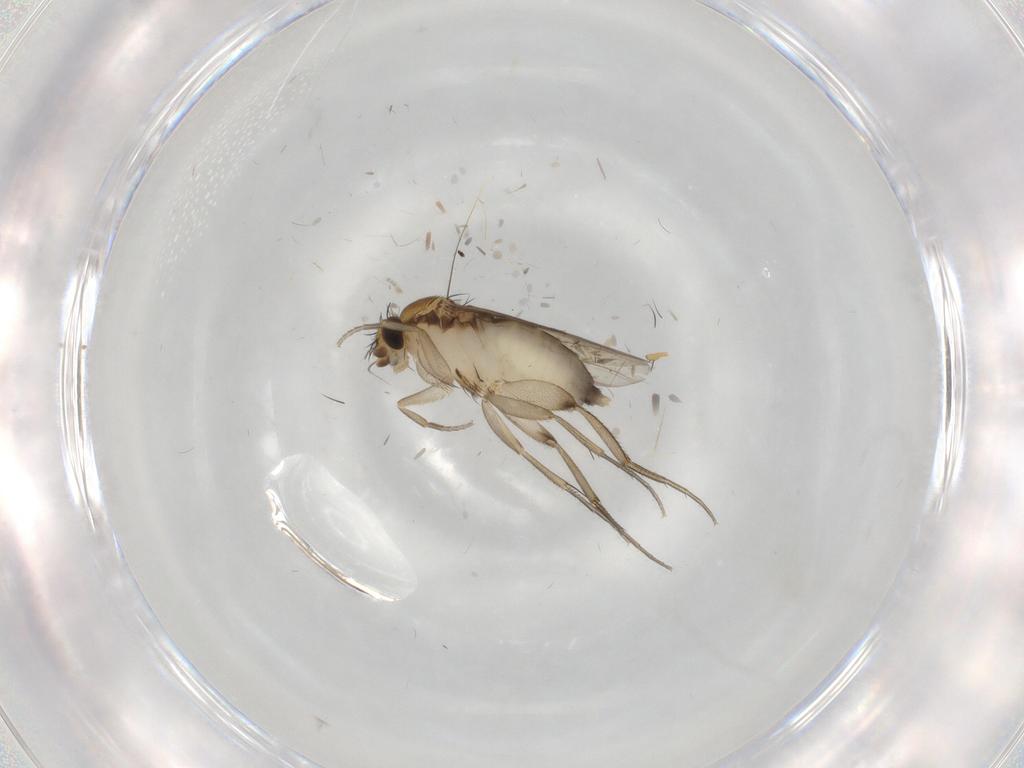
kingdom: Animalia
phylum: Arthropoda
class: Insecta
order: Diptera
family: Phoridae
